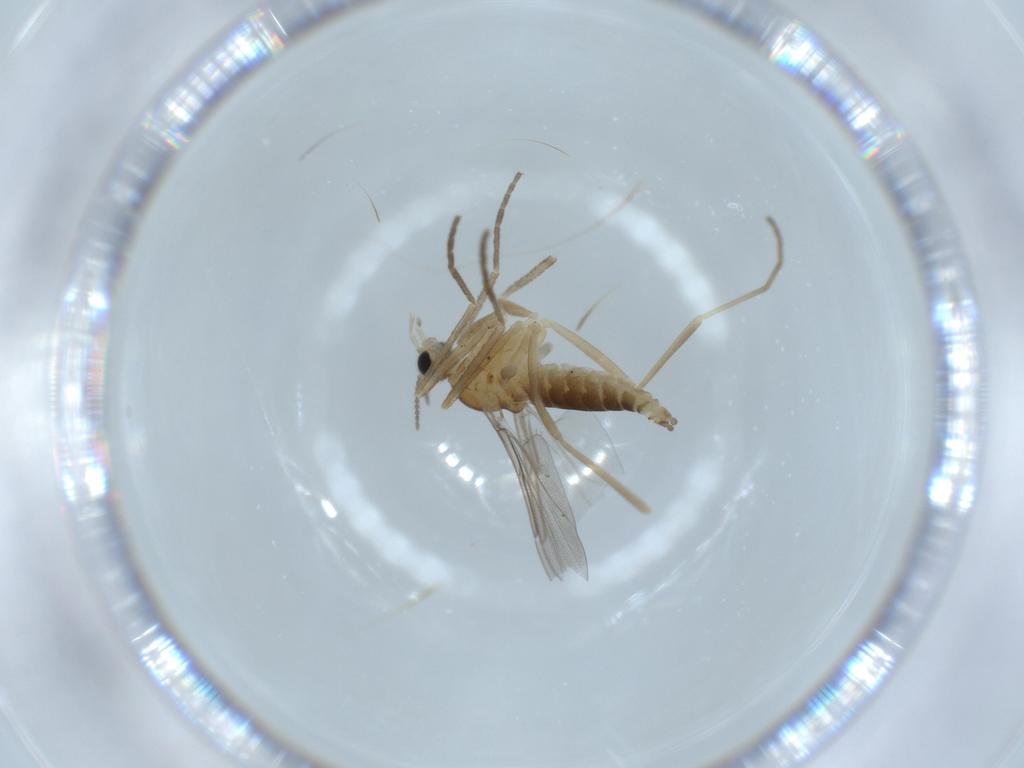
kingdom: Animalia
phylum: Arthropoda
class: Insecta
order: Diptera
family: Cecidomyiidae
